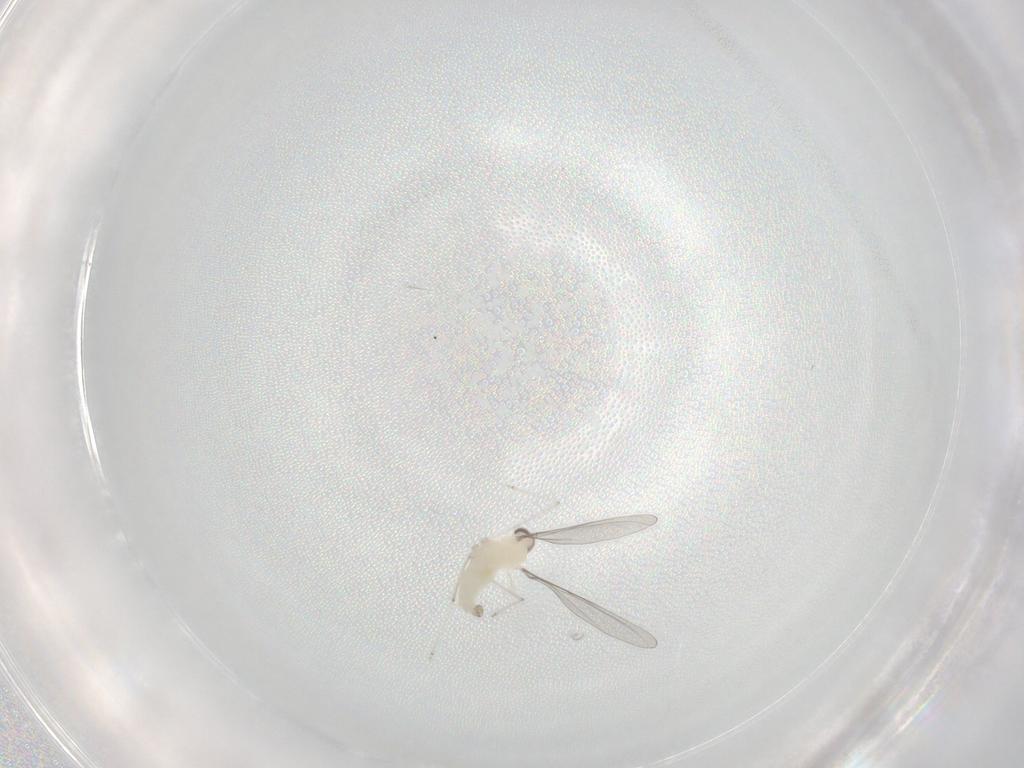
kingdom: Animalia
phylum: Arthropoda
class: Insecta
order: Diptera
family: Cecidomyiidae
